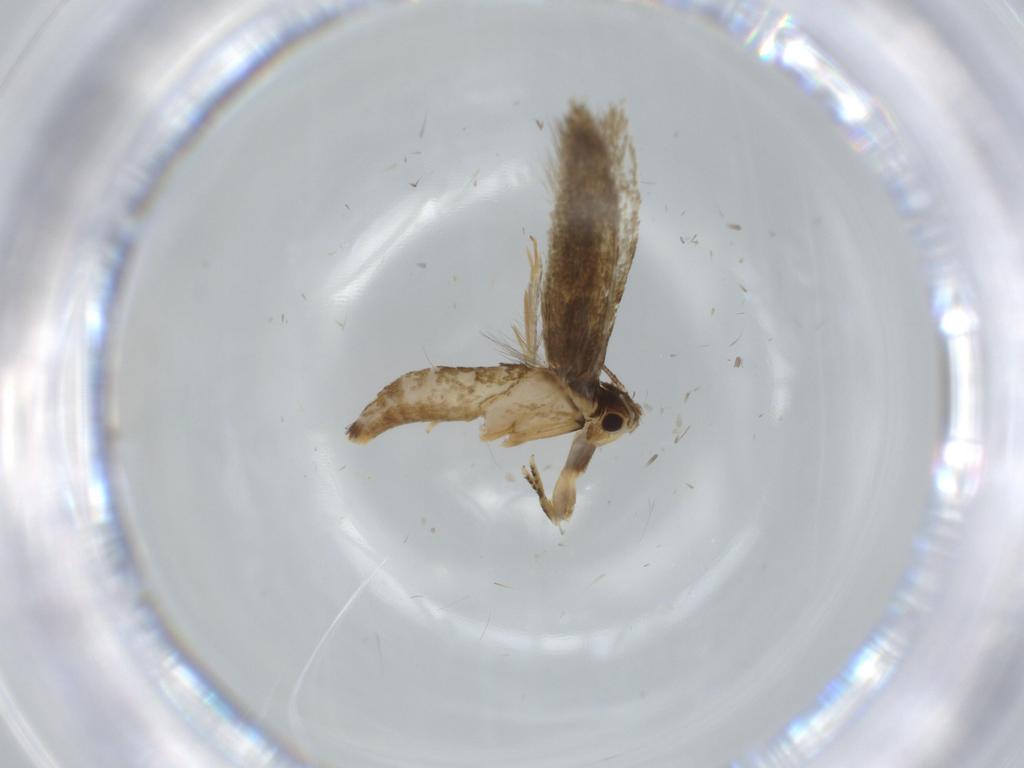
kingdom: Animalia
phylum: Arthropoda
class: Insecta
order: Lepidoptera
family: Tineidae
